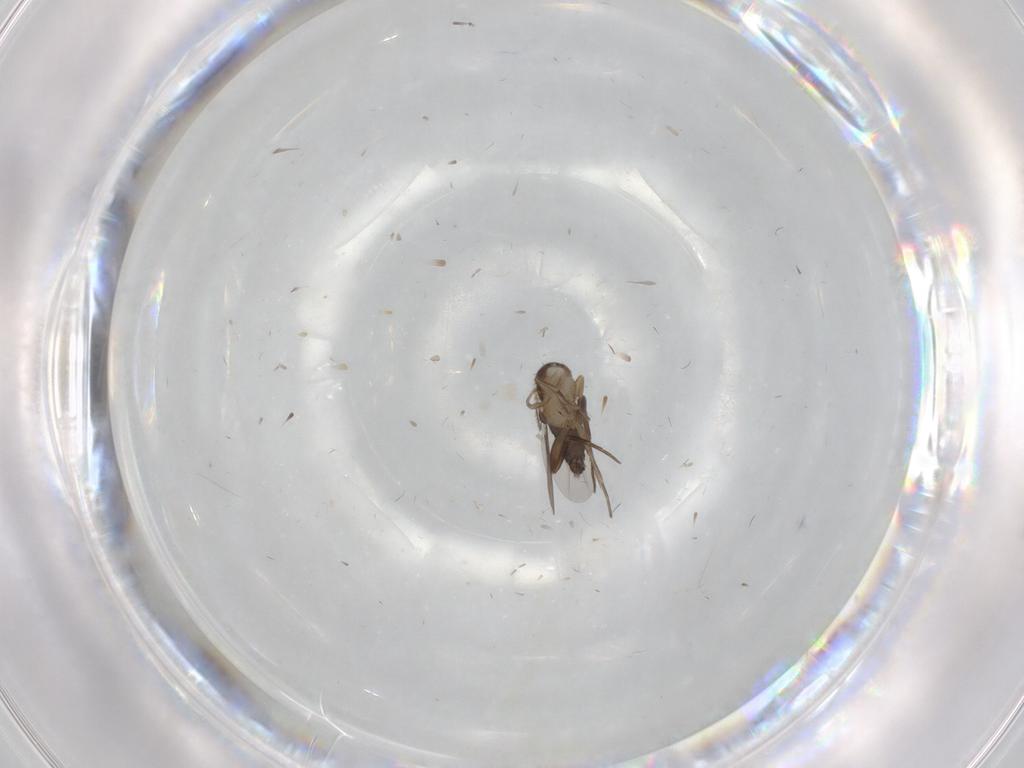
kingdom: Animalia
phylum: Arthropoda
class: Insecta
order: Diptera
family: Phoridae
